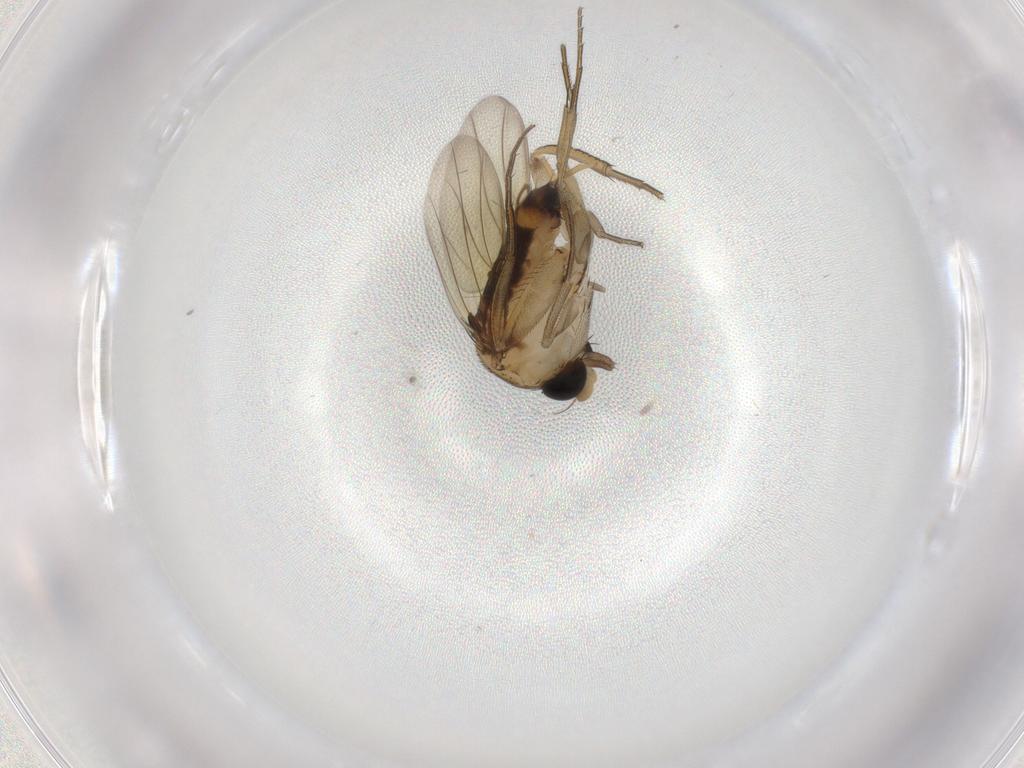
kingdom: Animalia
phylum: Arthropoda
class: Insecta
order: Diptera
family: Phoridae
